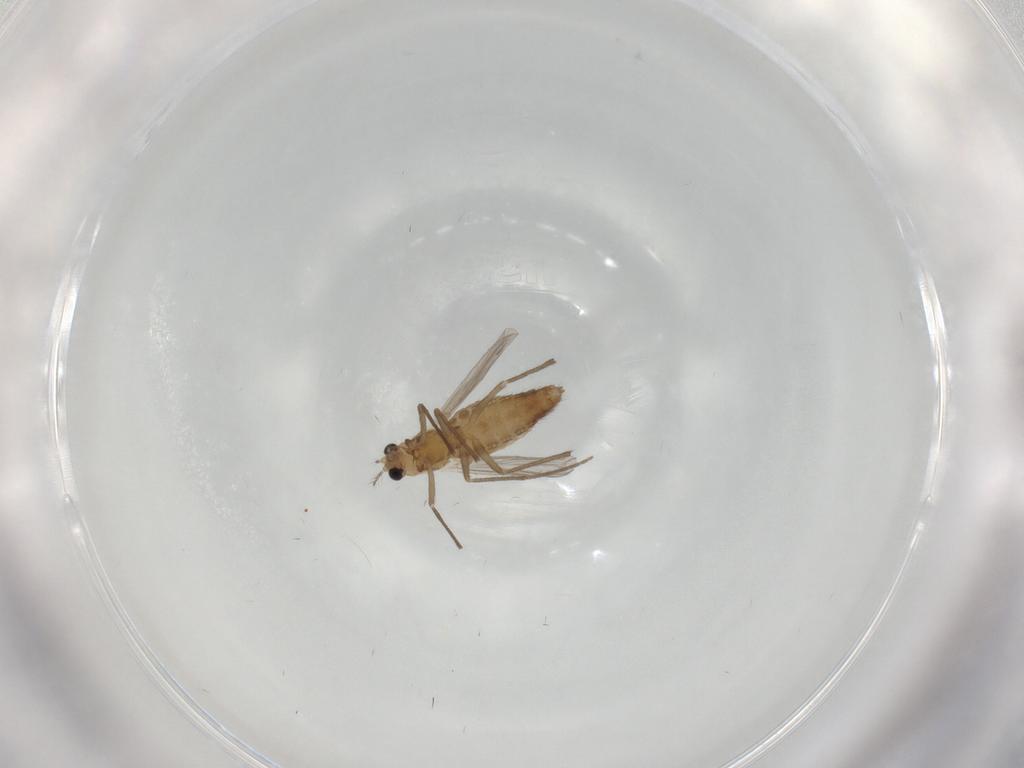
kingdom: Animalia
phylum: Arthropoda
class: Insecta
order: Diptera
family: Chironomidae
